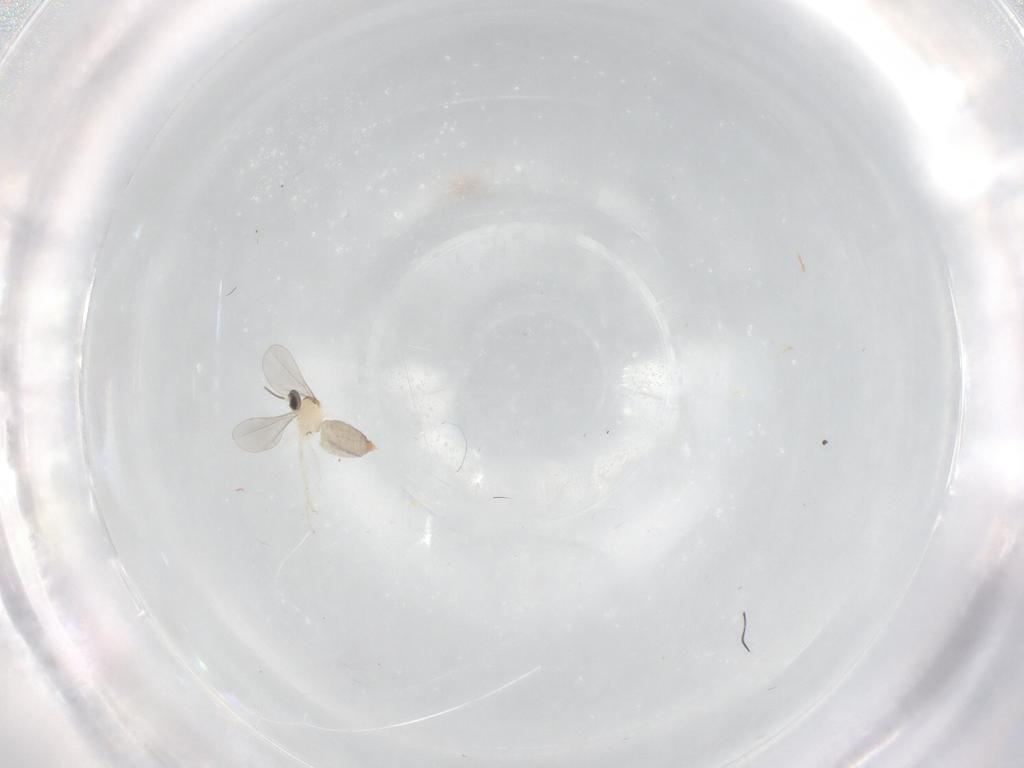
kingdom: Animalia
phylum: Arthropoda
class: Insecta
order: Diptera
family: Cecidomyiidae
